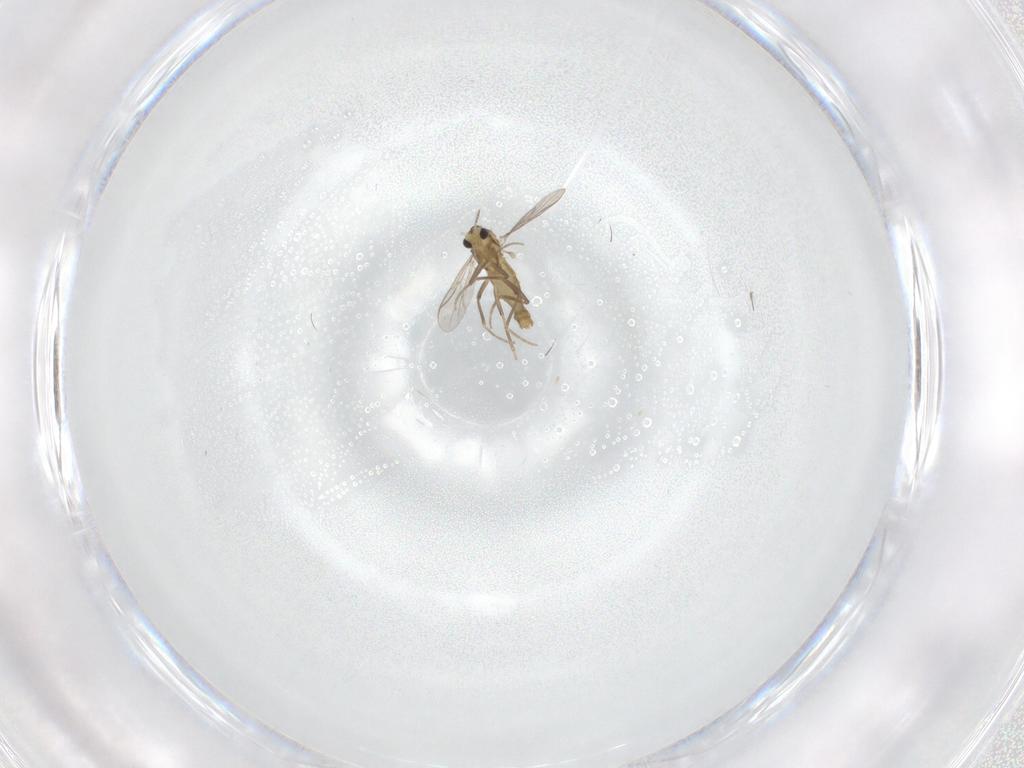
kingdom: Animalia
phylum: Arthropoda
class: Insecta
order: Diptera
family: Chironomidae
